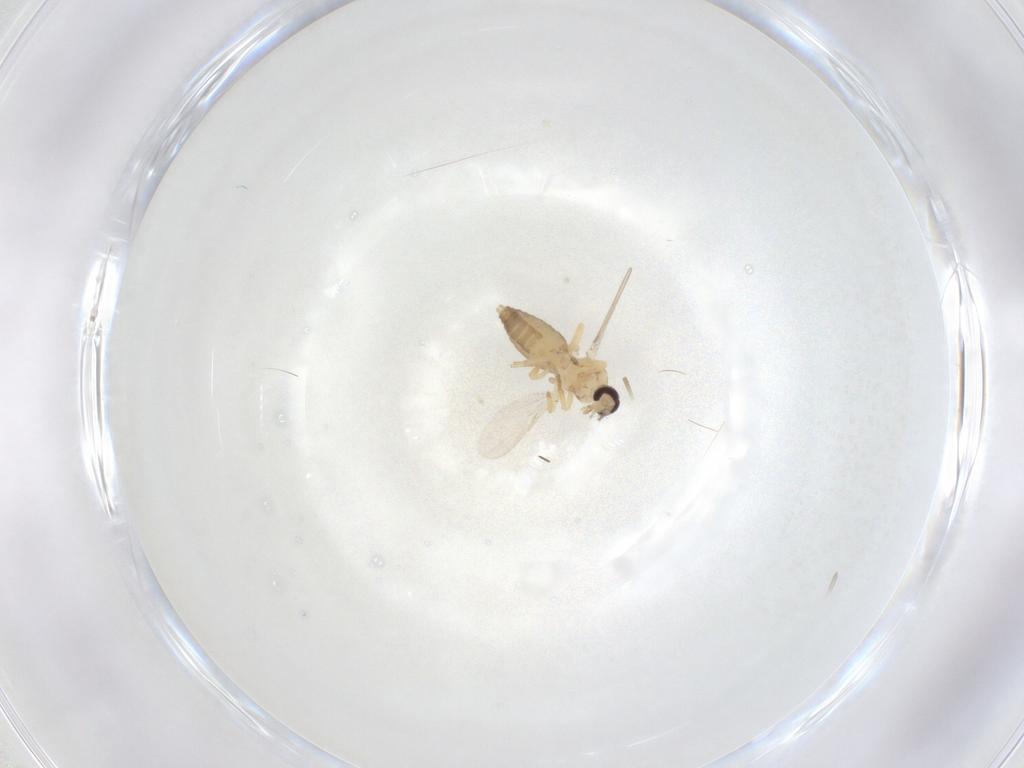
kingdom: Animalia
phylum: Arthropoda
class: Insecta
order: Diptera
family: Ceratopogonidae
